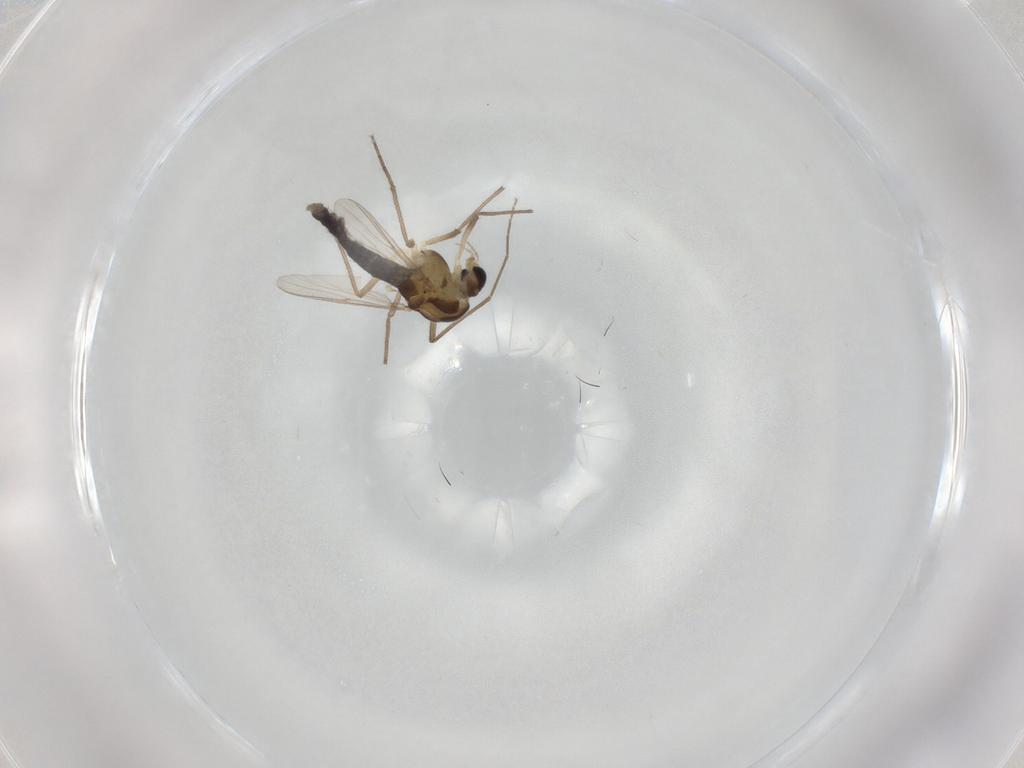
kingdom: Animalia
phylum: Arthropoda
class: Insecta
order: Diptera
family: Chironomidae
